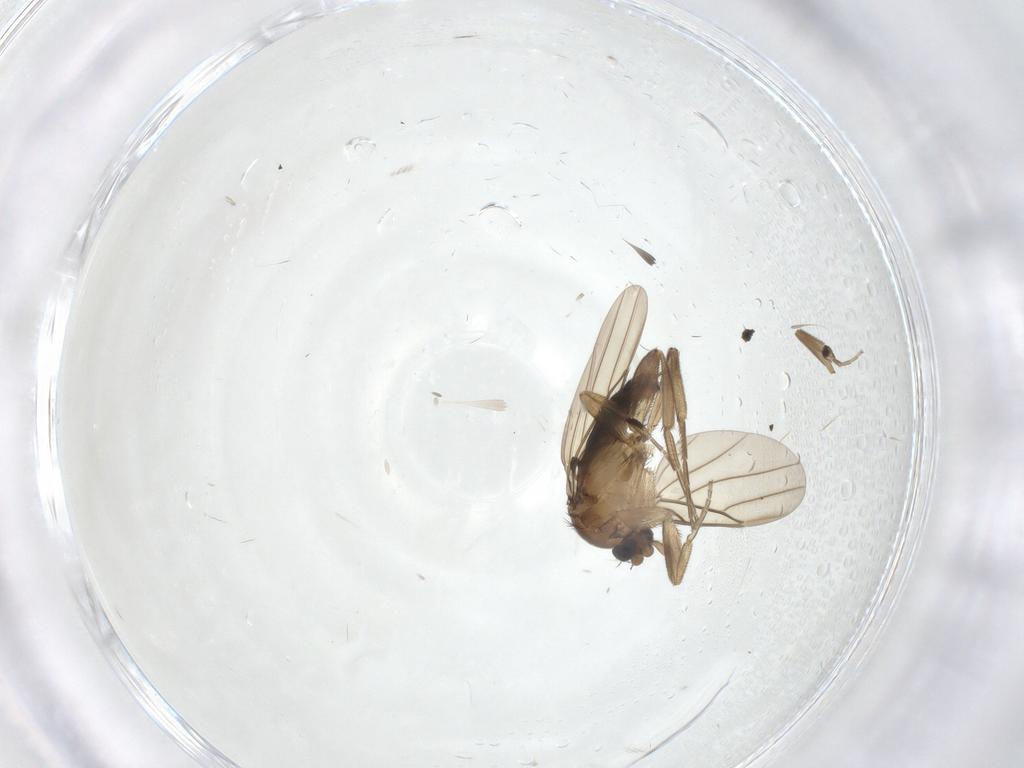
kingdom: Animalia
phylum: Arthropoda
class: Insecta
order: Diptera
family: Phoridae
